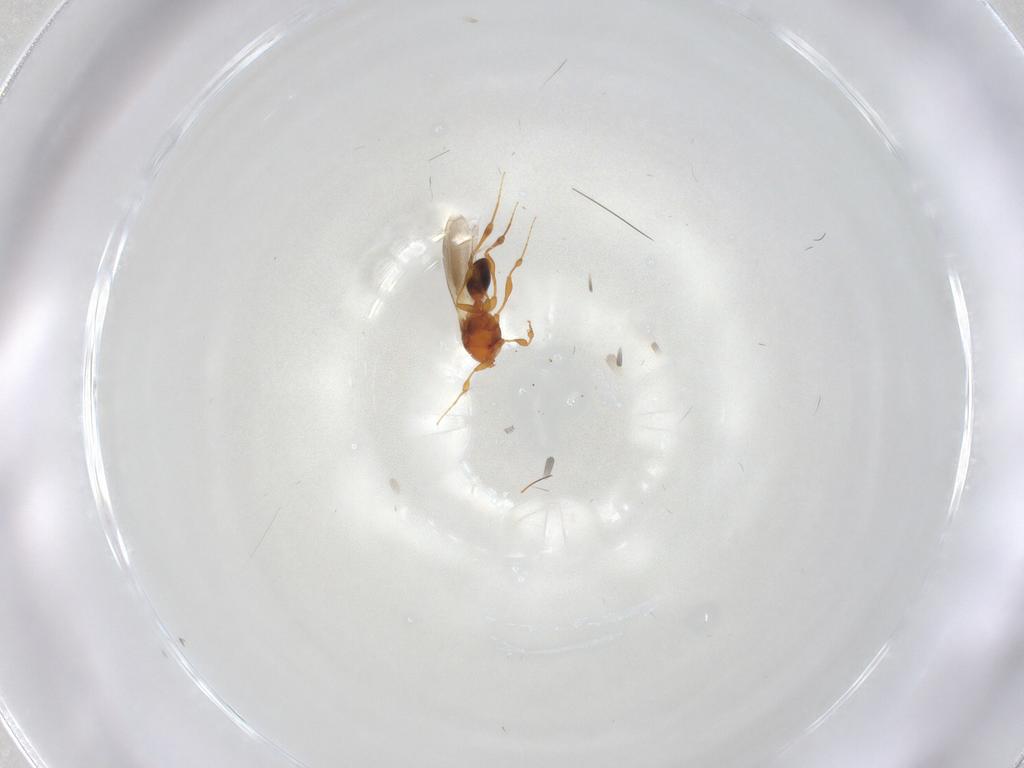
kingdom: Animalia
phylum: Arthropoda
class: Insecta
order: Hymenoptera
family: Platygastridae
